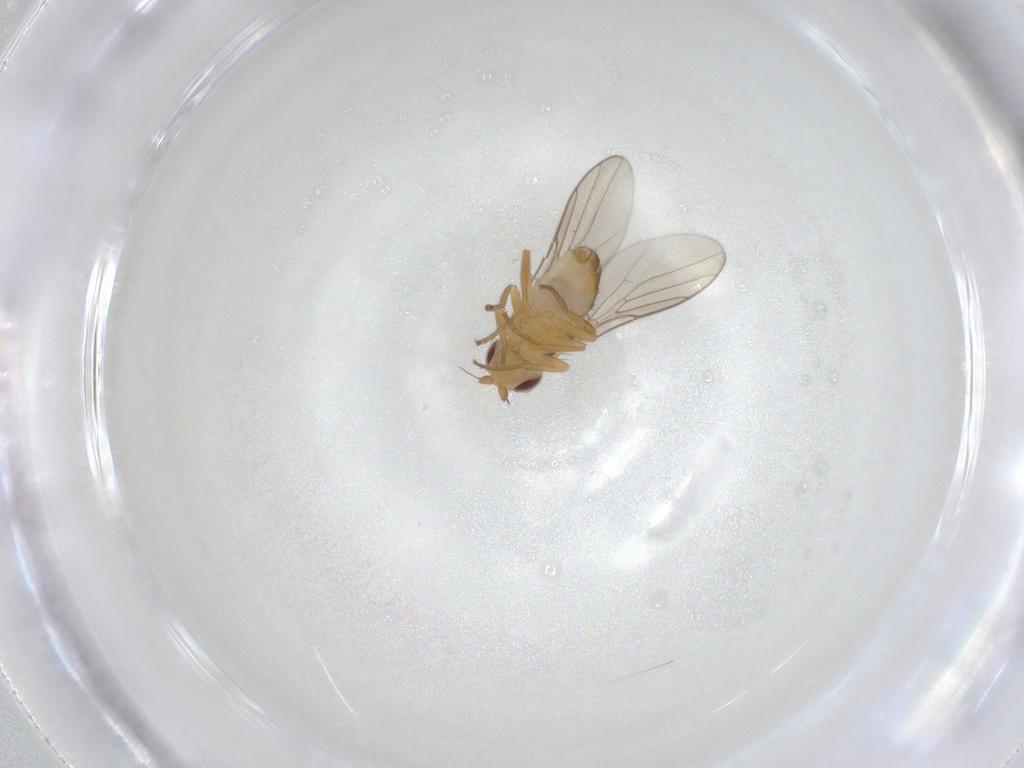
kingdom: Animalia
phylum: Arthropoda
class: Insecta
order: Diptera
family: Chloropidae
